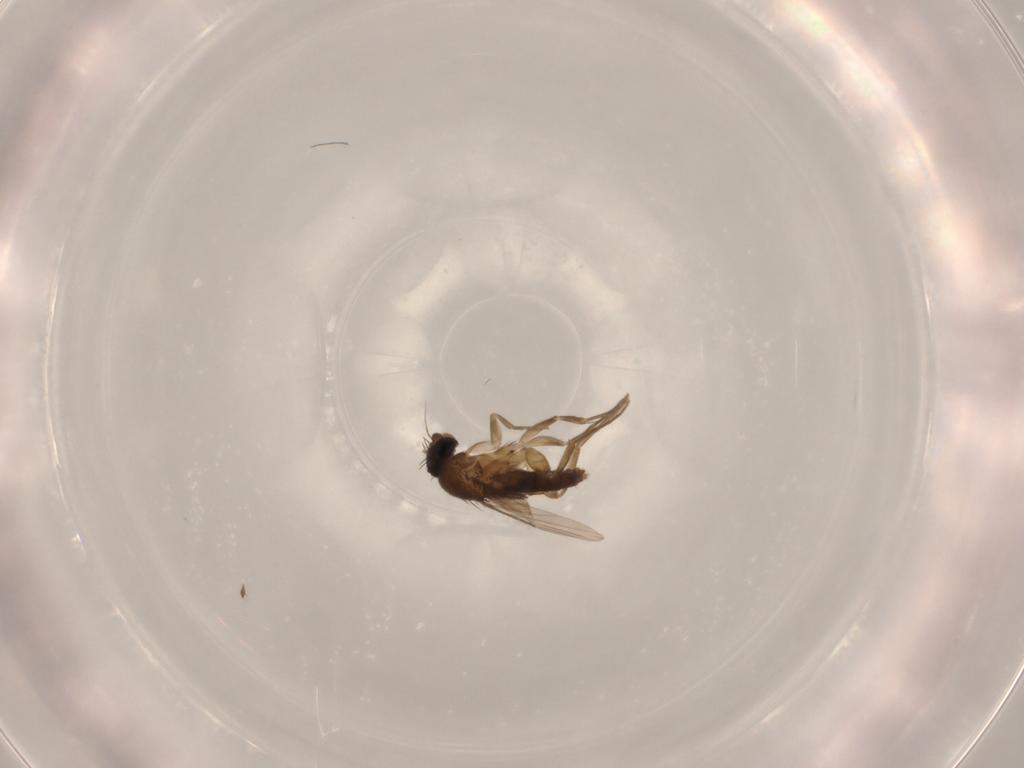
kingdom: Animalia
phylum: Arthropoda
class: Insecta
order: Diptera
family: Phoridae
